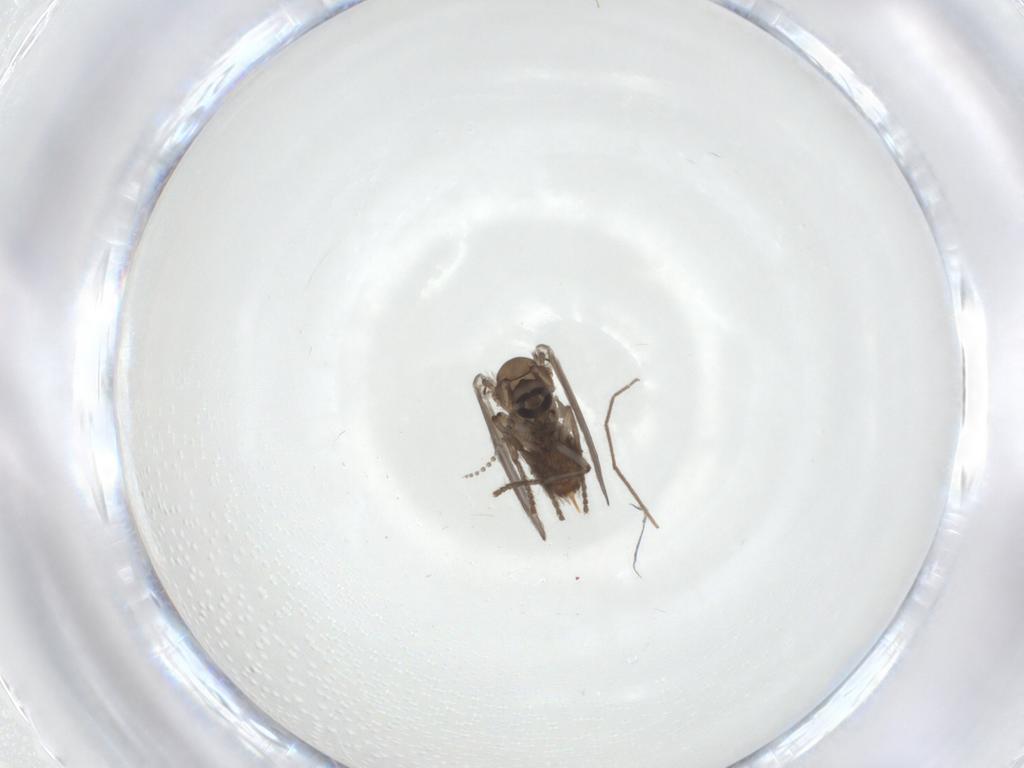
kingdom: Animalia
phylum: Arthropoda
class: Insecta
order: Diptera
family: Chironomidae
